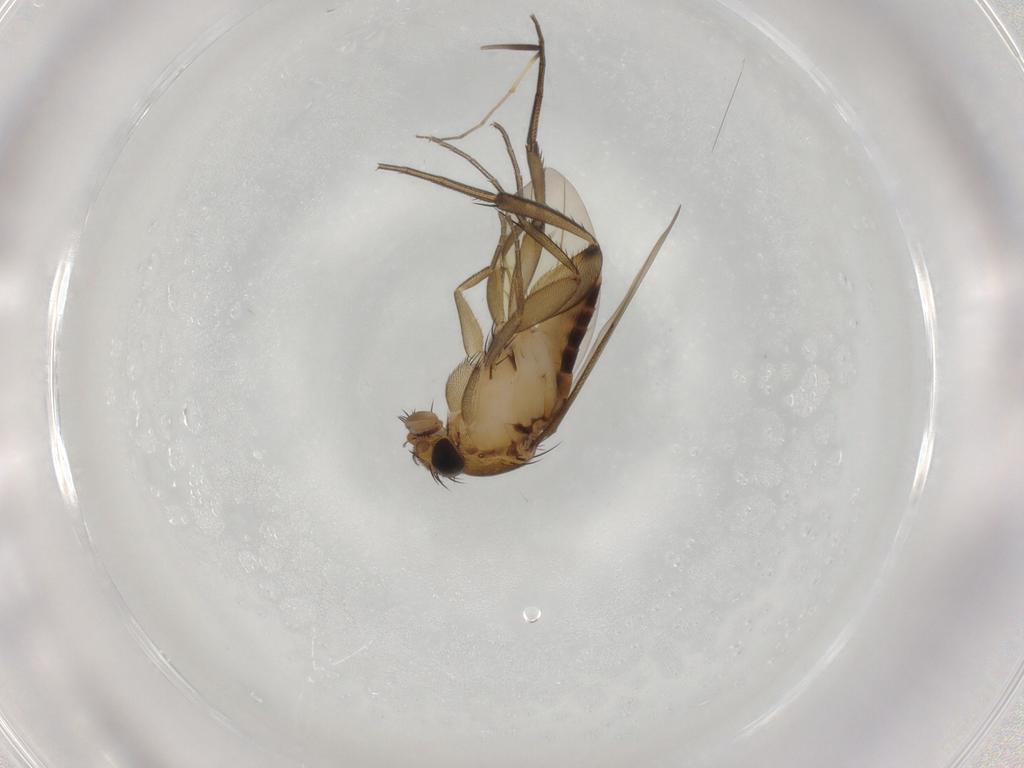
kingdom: Animalia
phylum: Arthropoda
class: Insecta
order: Diptera
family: Phoridae
